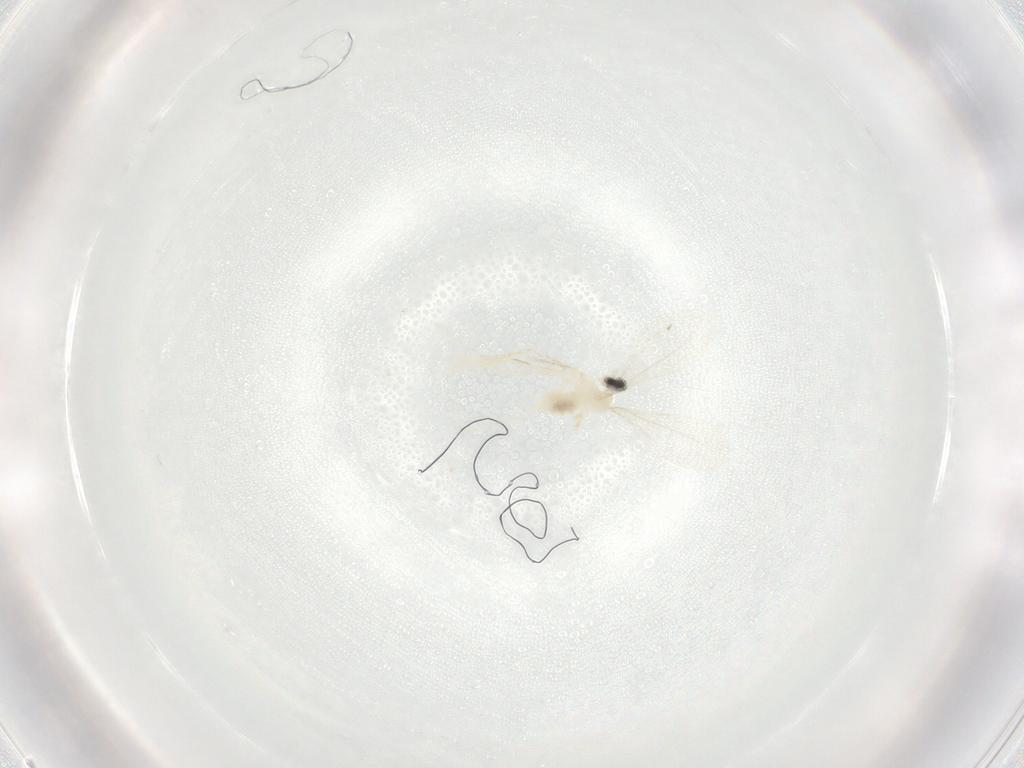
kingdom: Animalia
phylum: Arthropoda
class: Insecta
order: Diptera
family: Cecidomyiidae
